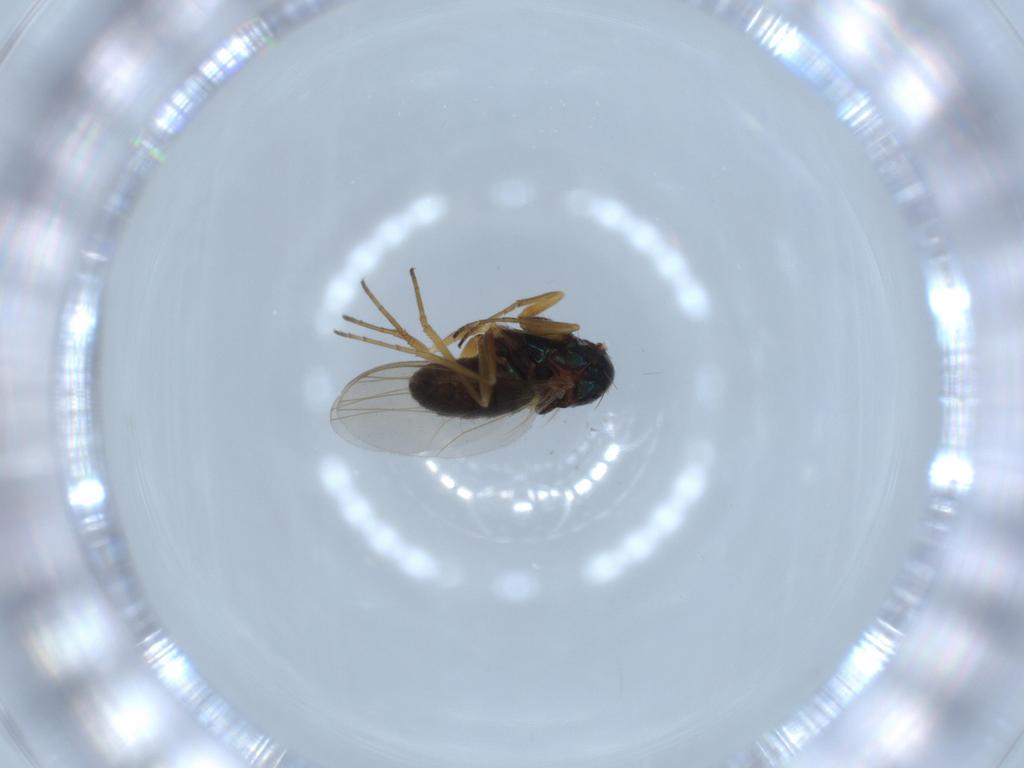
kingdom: Animalia
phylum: Arthropoda
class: Insecta
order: Diptera
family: Dolichopodidae
